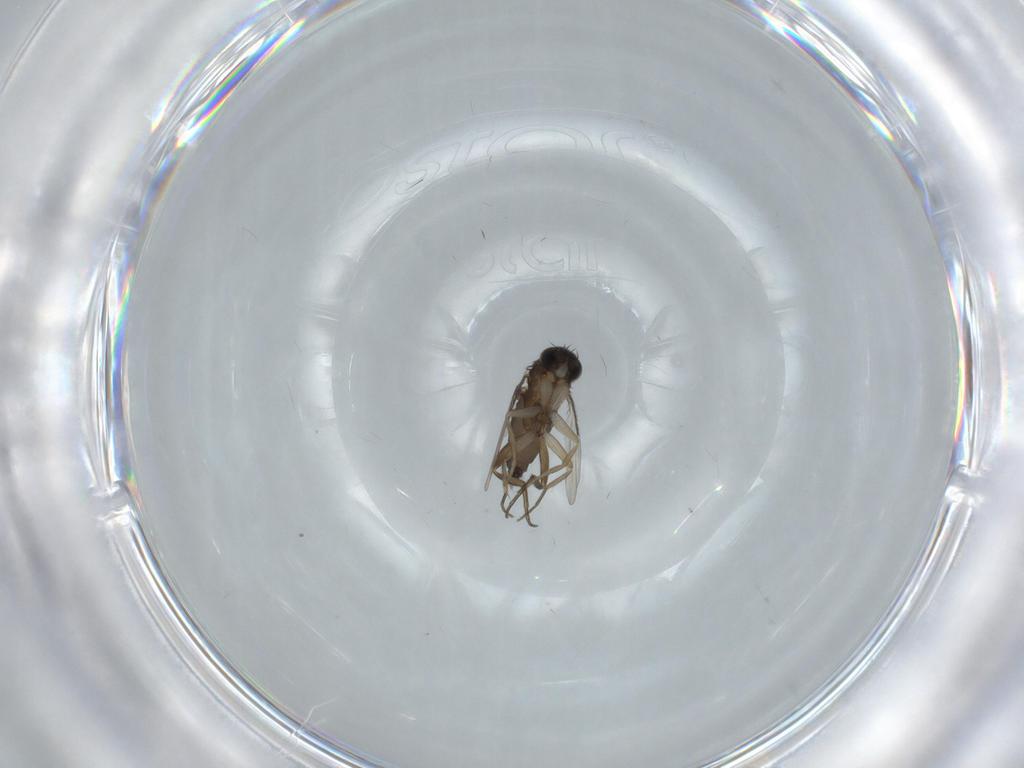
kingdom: Animalia
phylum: Arthropoda
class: Insecta
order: Diptera
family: Phoridae
